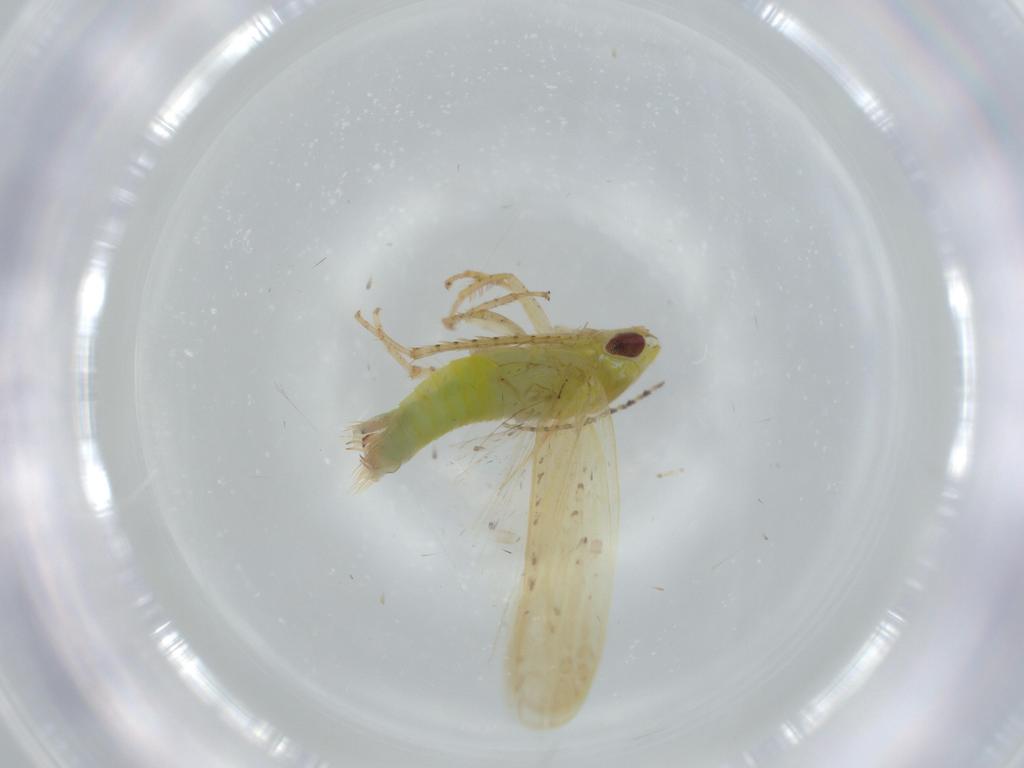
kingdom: Animalia
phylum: Arthropoda
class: Insecta
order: Hemiptera
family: Cicadellidae
